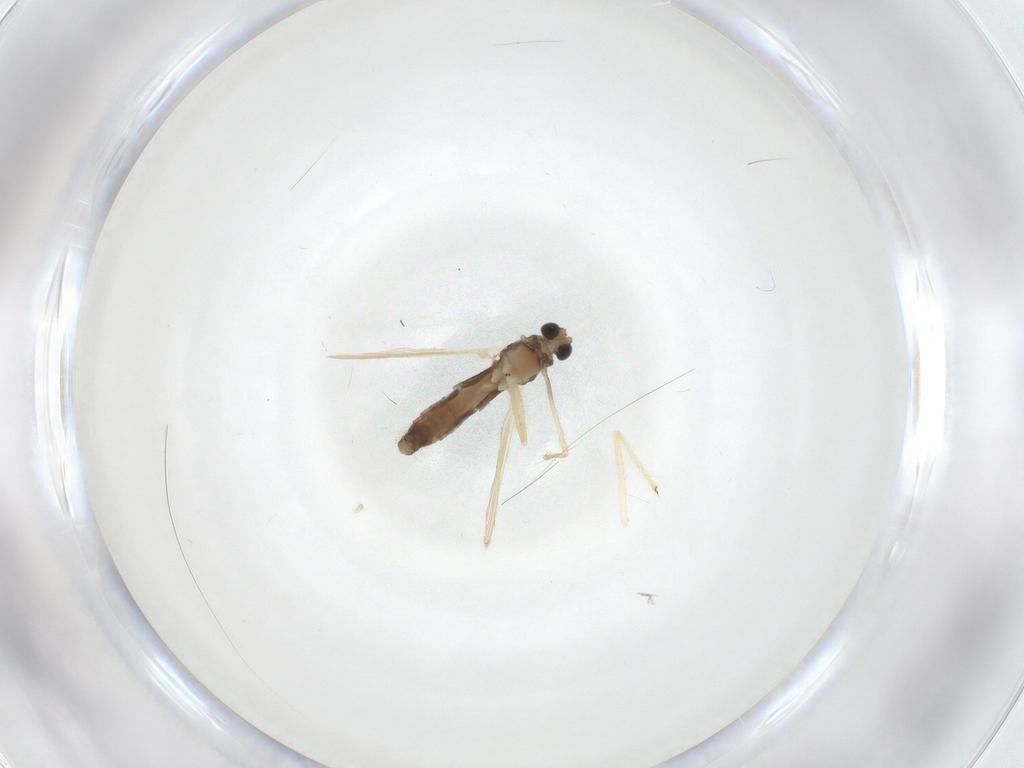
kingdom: Animalia
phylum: Arthropoda
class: Insecta
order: Diptera
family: Chironomidae
